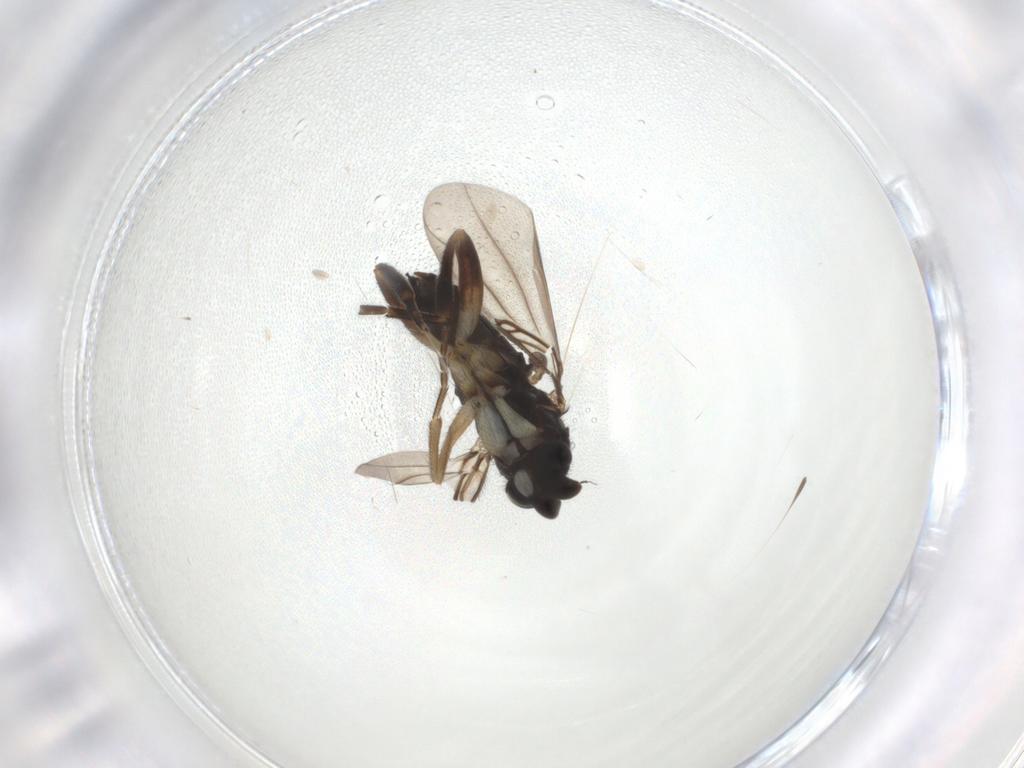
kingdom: Animalia
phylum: Arthropoda
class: Insecta
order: Diptera
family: Phoridae
